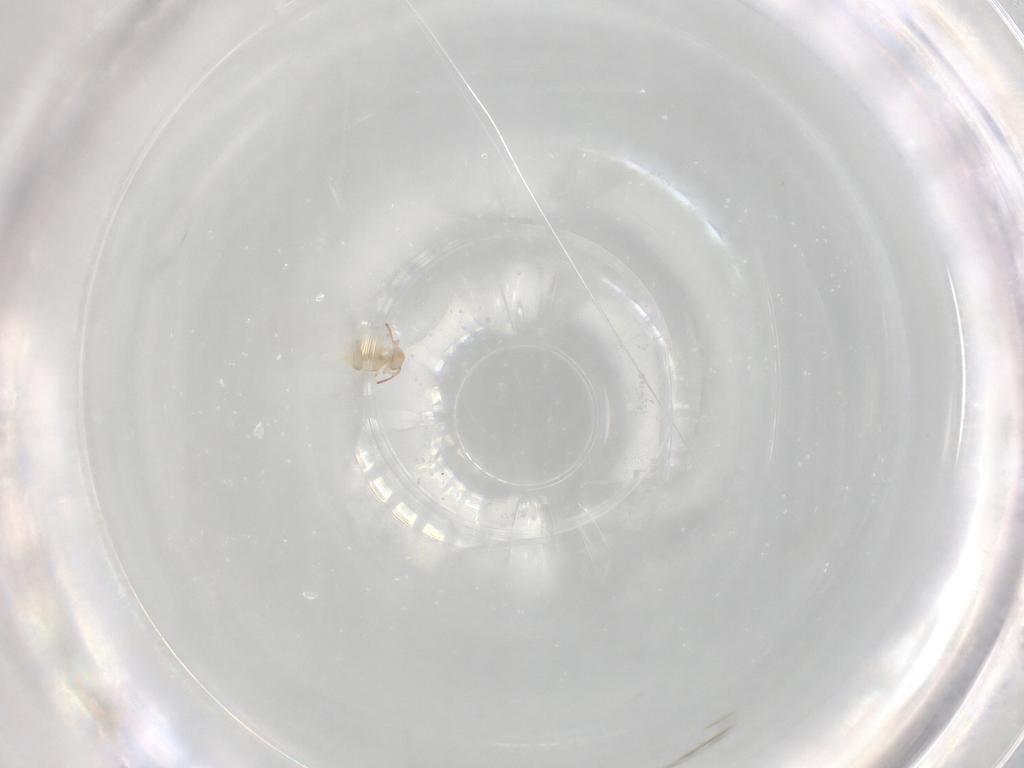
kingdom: Animalia
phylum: Arthropoda
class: Collembola
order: Symphypleona
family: Bourletiellidae
